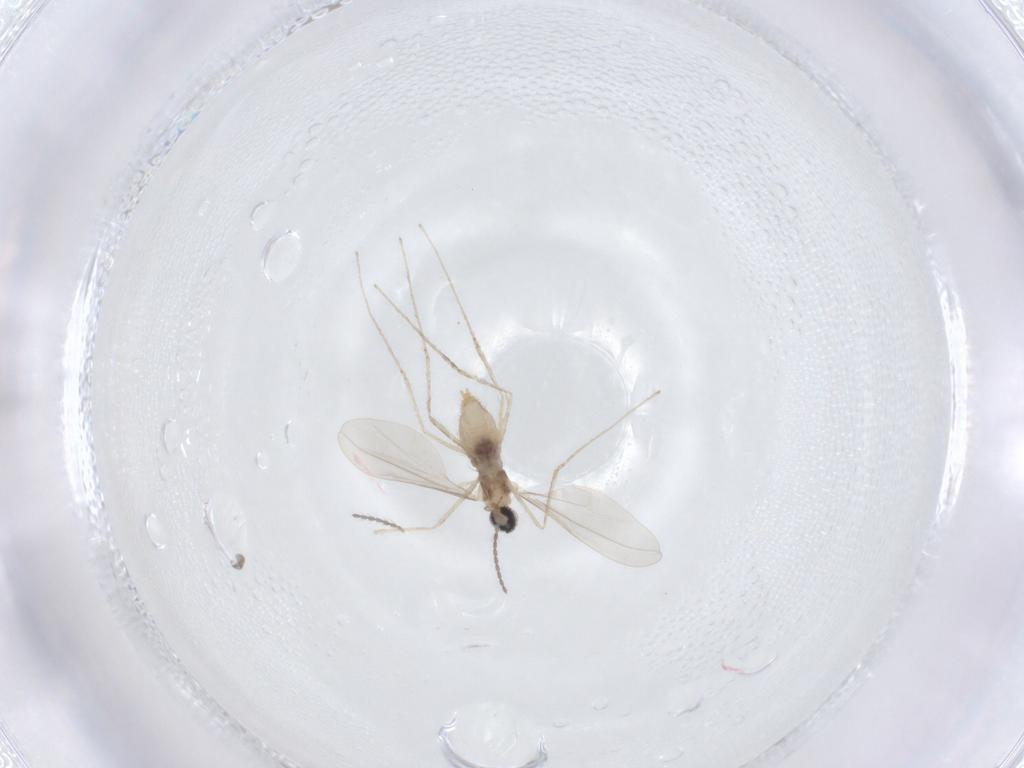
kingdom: Animalia
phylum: Arthropoda
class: Insecta
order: Diptera
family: Cecidomyiidae
